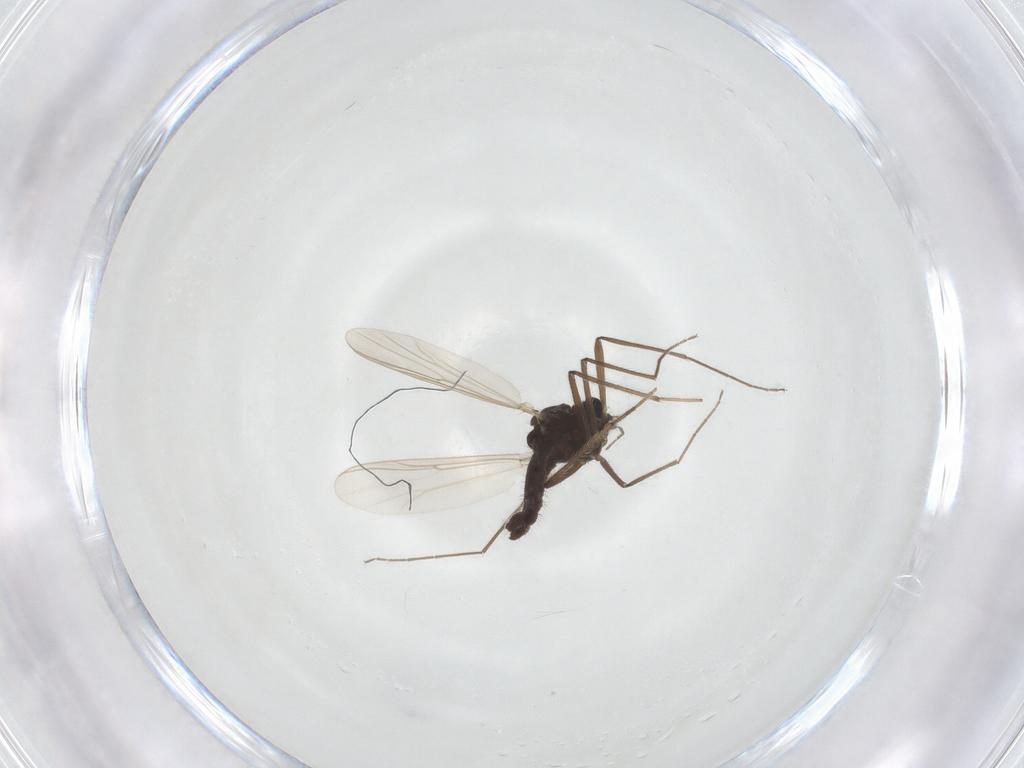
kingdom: Animalia
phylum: Arthropoda
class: Insecta
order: Diptera
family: Chironomidae
